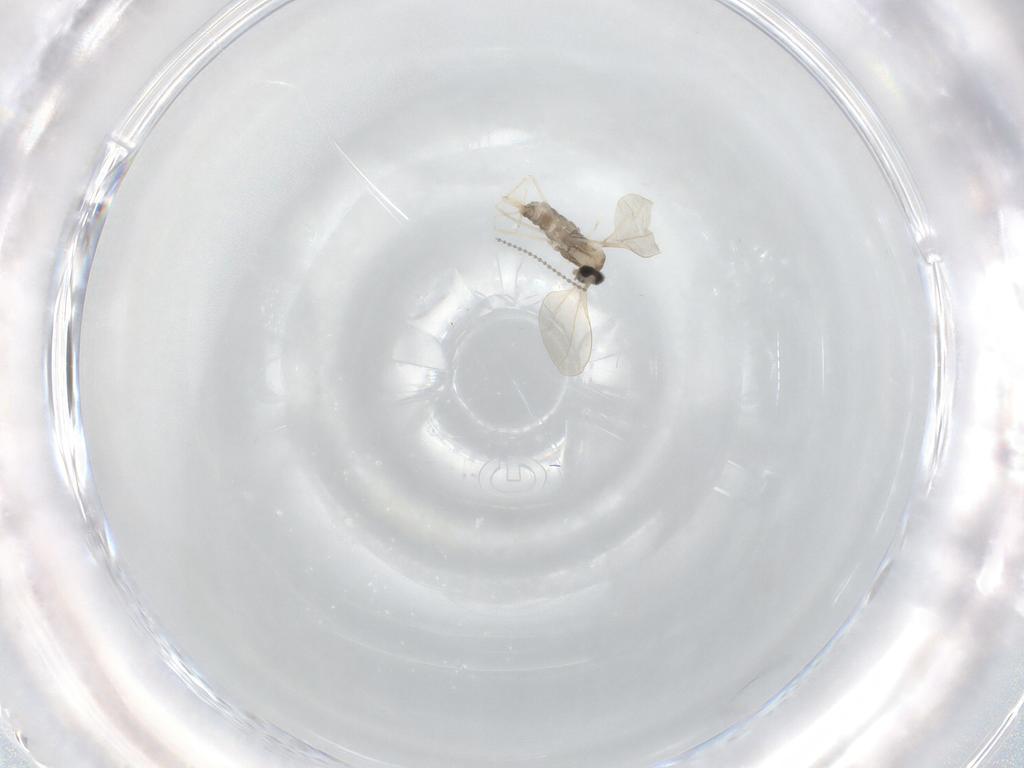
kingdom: Animalia
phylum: Arthropoda
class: Insecta
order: Diptera
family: Cecidomyiidae
